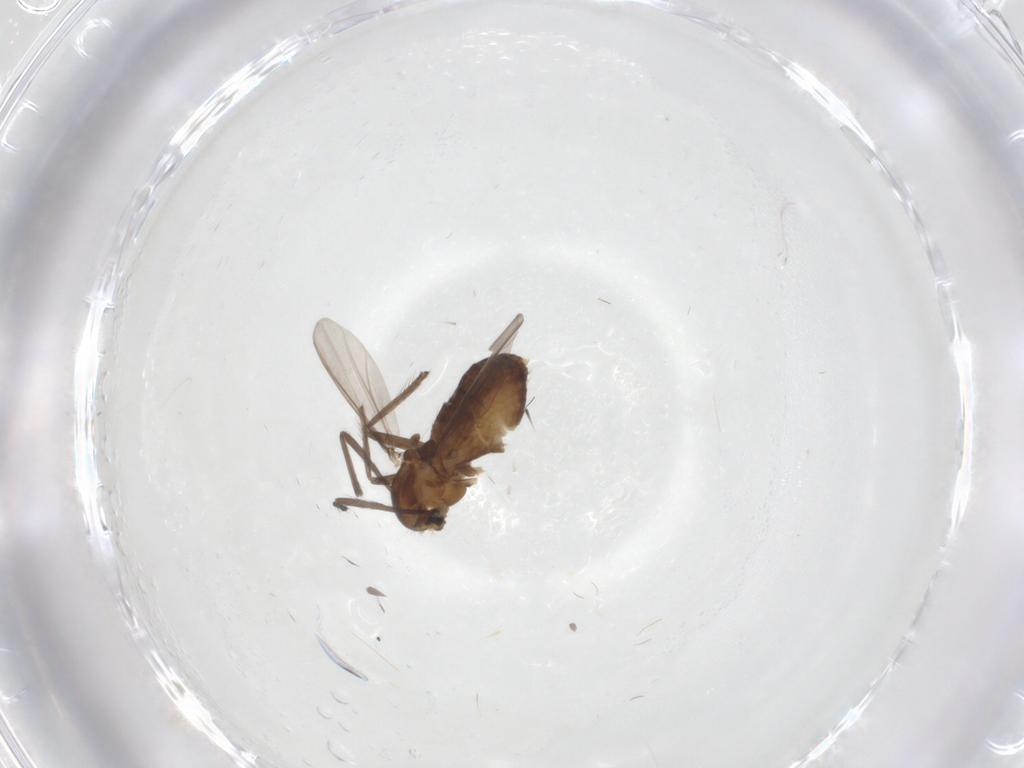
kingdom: Animalia
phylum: Arthropoda
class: Insecta
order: Diptera
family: Chironomidae
